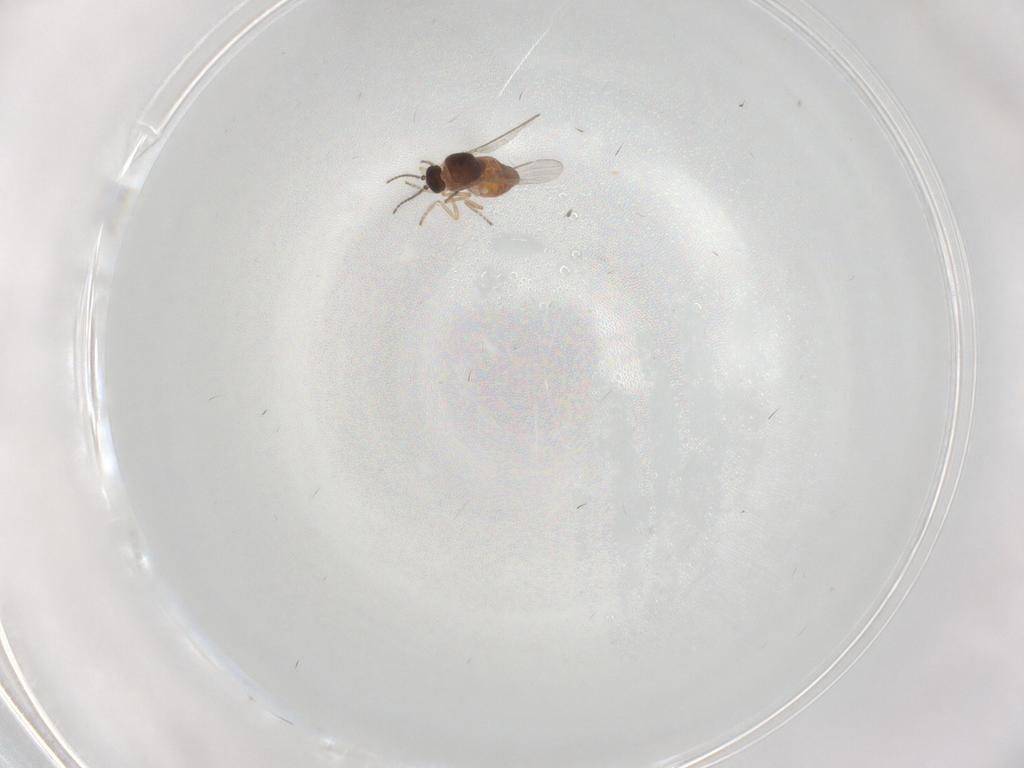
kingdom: Animalia
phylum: Arthropoda
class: Insecta
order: Diptera
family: Ceratopogonidae
